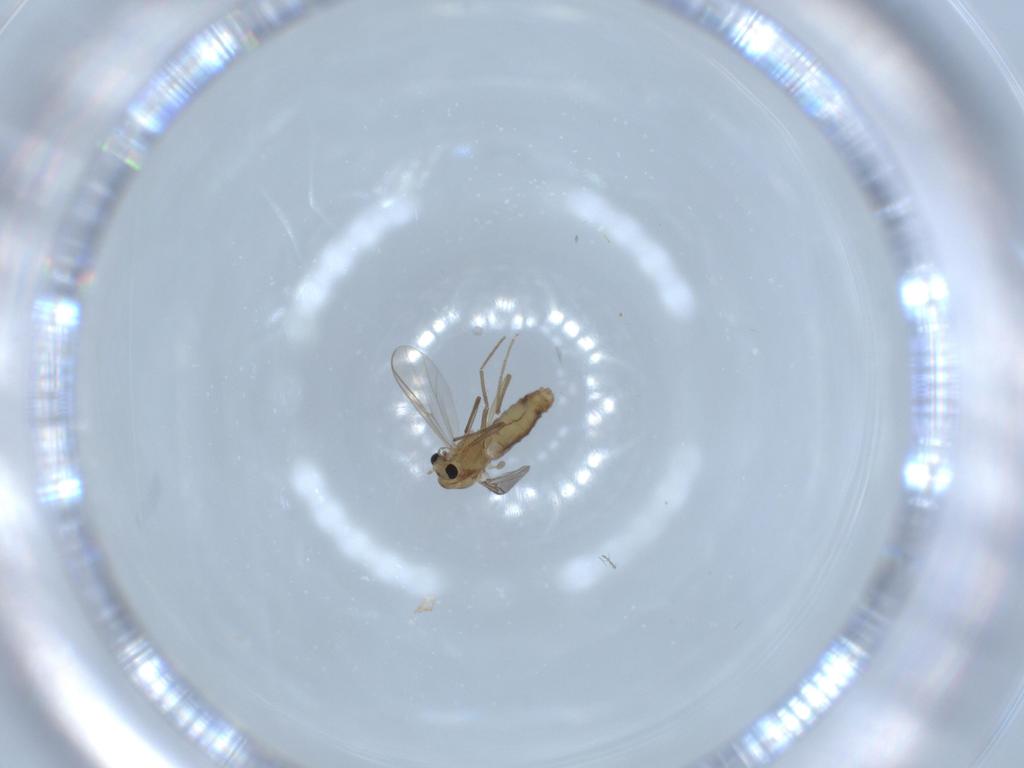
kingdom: Animalia
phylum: Arthropoda
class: Insecta
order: Diptera
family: Chironomidae
